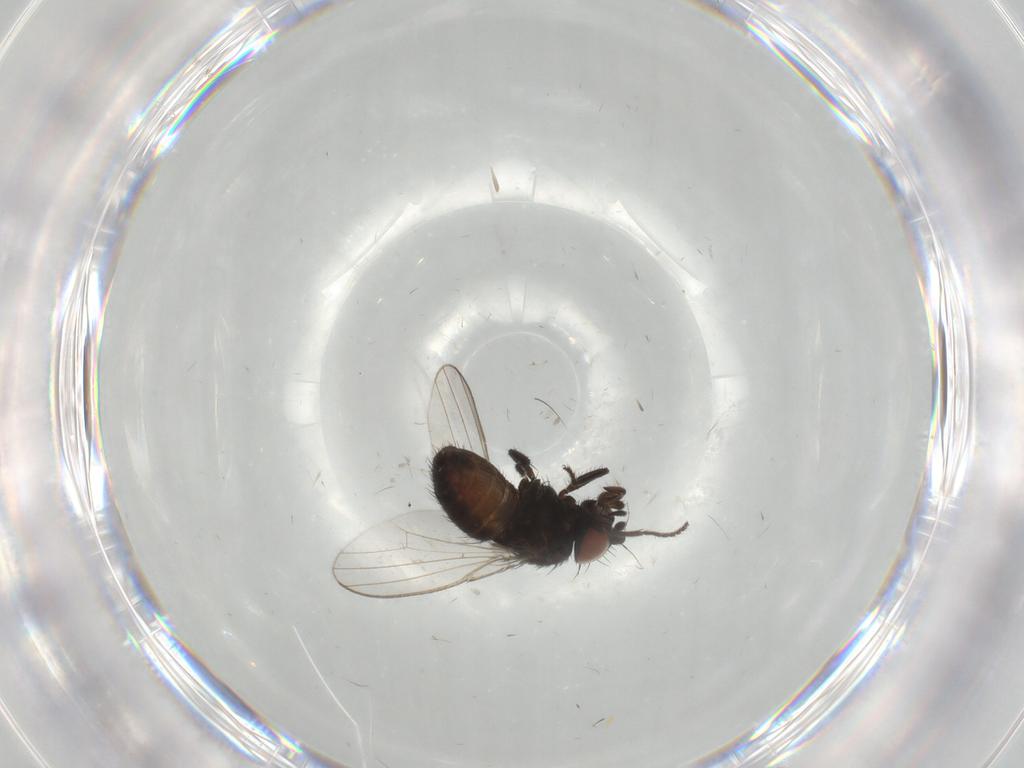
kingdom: Animalia
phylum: Arthropoda
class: Insecta
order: Diptera
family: Milichiidae
